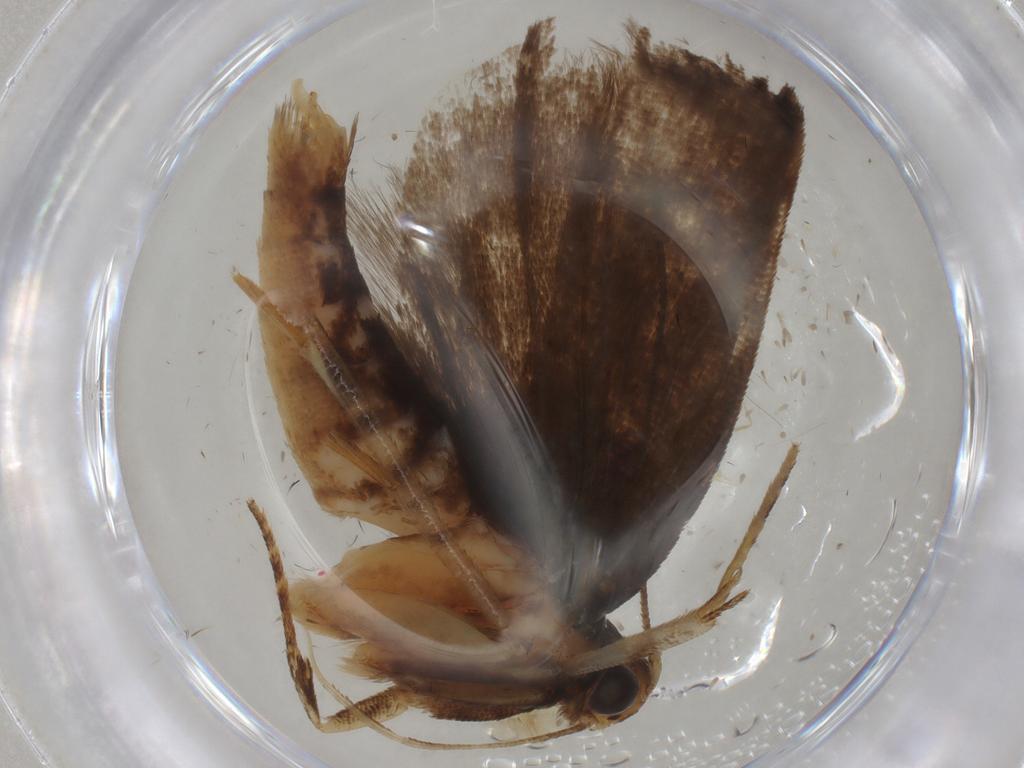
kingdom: Animalia
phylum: Arthropoda
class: Insecta
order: Lepidoptera
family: Gelechiidae
